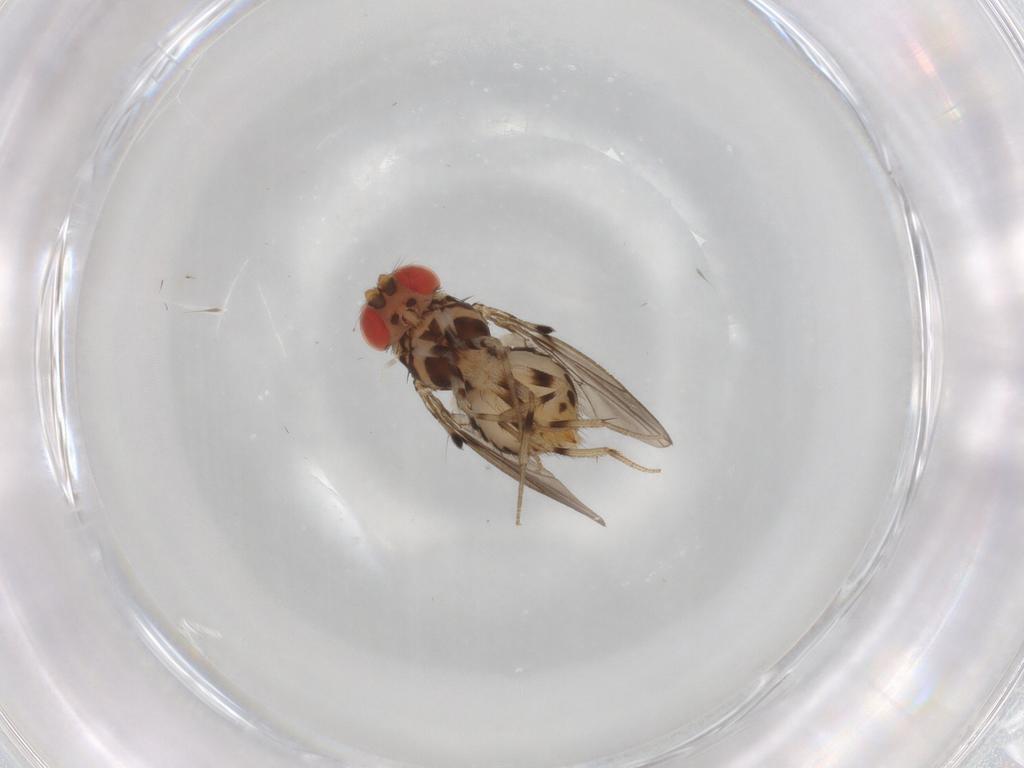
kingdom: Animalia
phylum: Arthropoda
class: Insecta
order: Diptera
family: Drosophilidae
